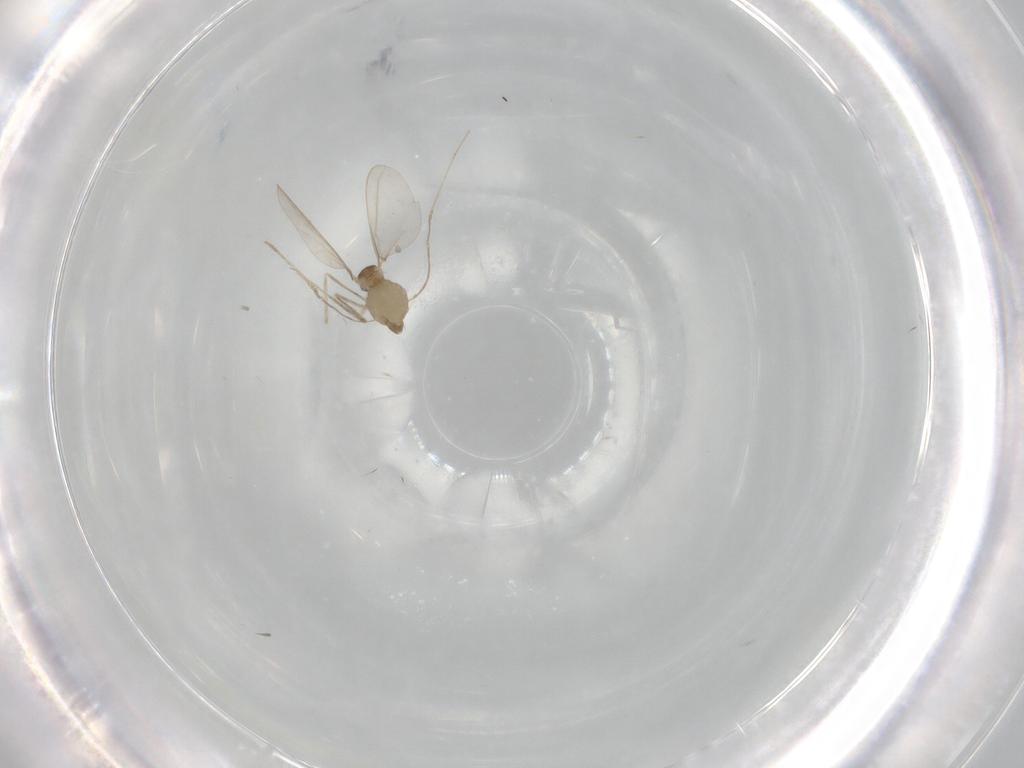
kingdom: Animalia
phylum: Arthropoda
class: Insecta
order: Diptera
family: Cecidomyiidae
